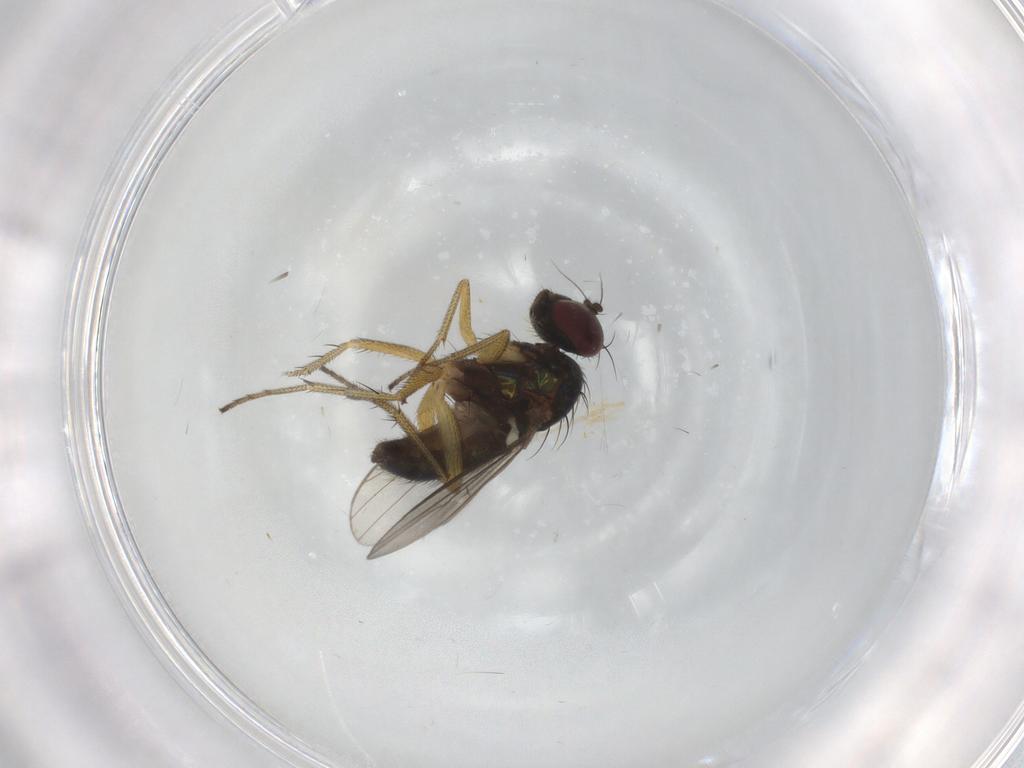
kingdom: Animalia
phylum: Arthropoda
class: Insecta
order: Diptera
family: Dolichopodidae
